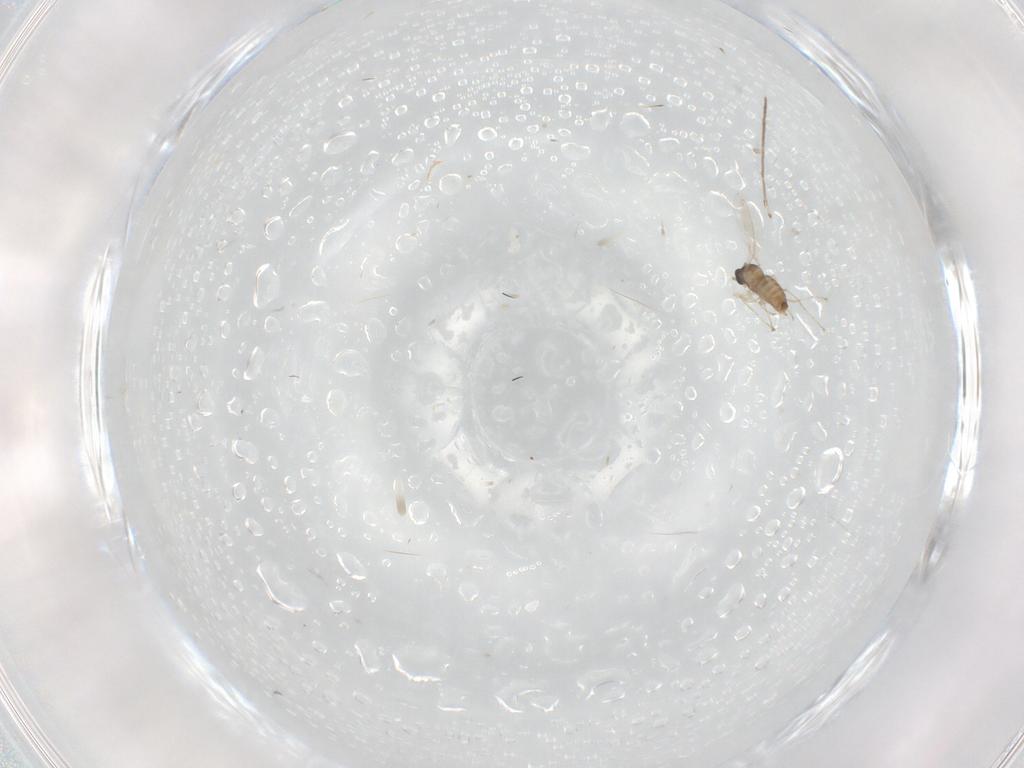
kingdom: Animalia
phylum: Arthropoda
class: Insecta
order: Diptera
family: Cecidomyiidae
